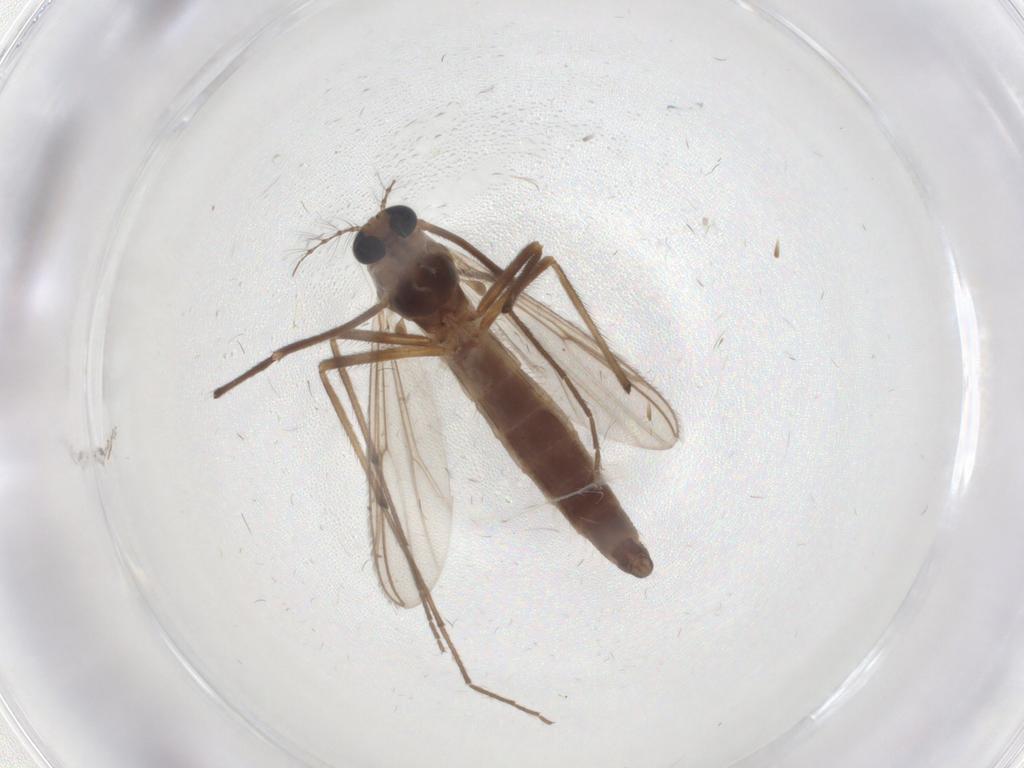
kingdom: Animalia
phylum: Arthropoda
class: Insecta
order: Diptera
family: Chironomidae
